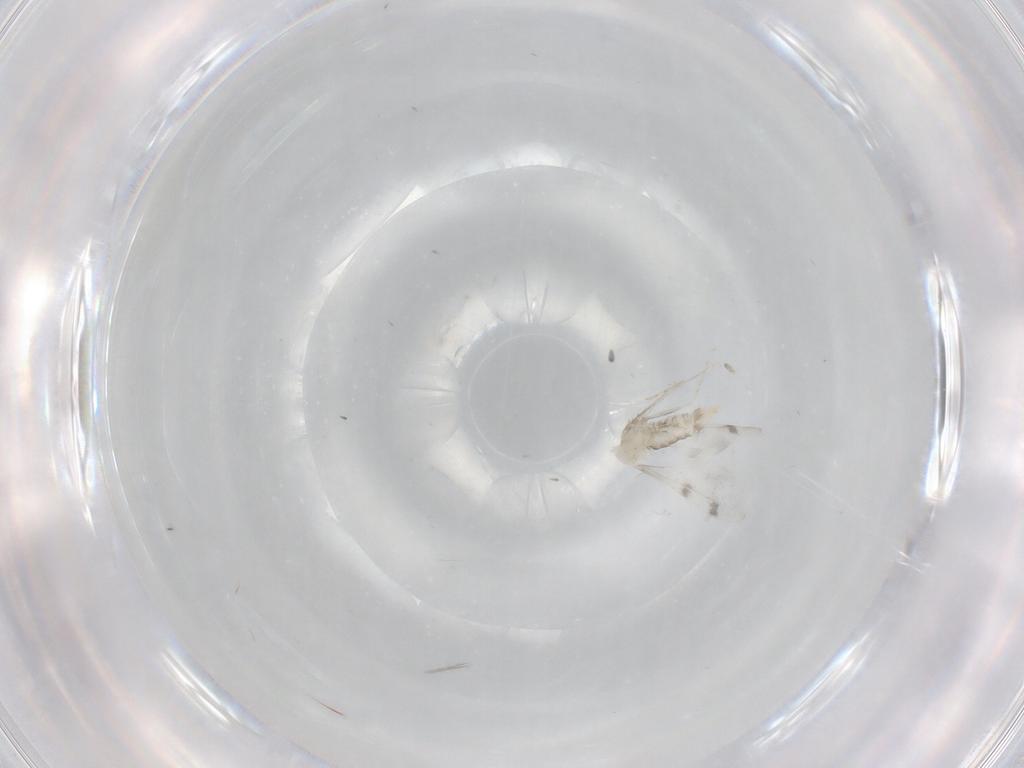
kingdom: Animalia
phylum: Arthropoda
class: Insecta
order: Diptera
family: Cecidomyiidae
